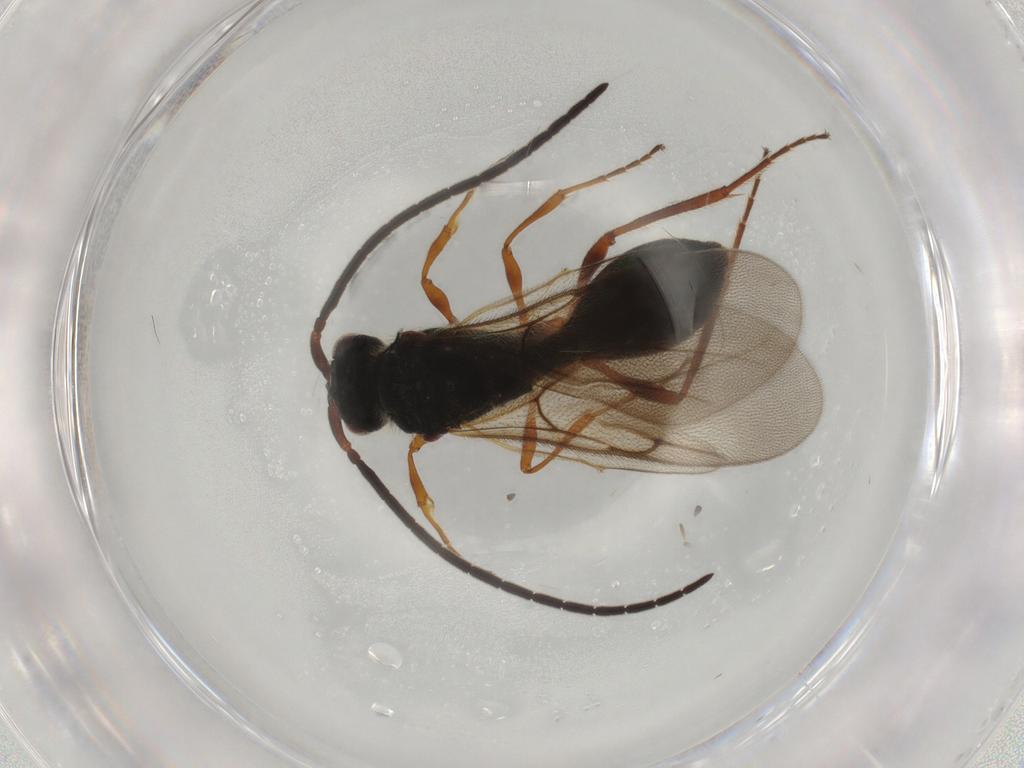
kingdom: Animalia
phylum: Arthropoda
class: Insecta
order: Hymenoptera
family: Diapriidae
